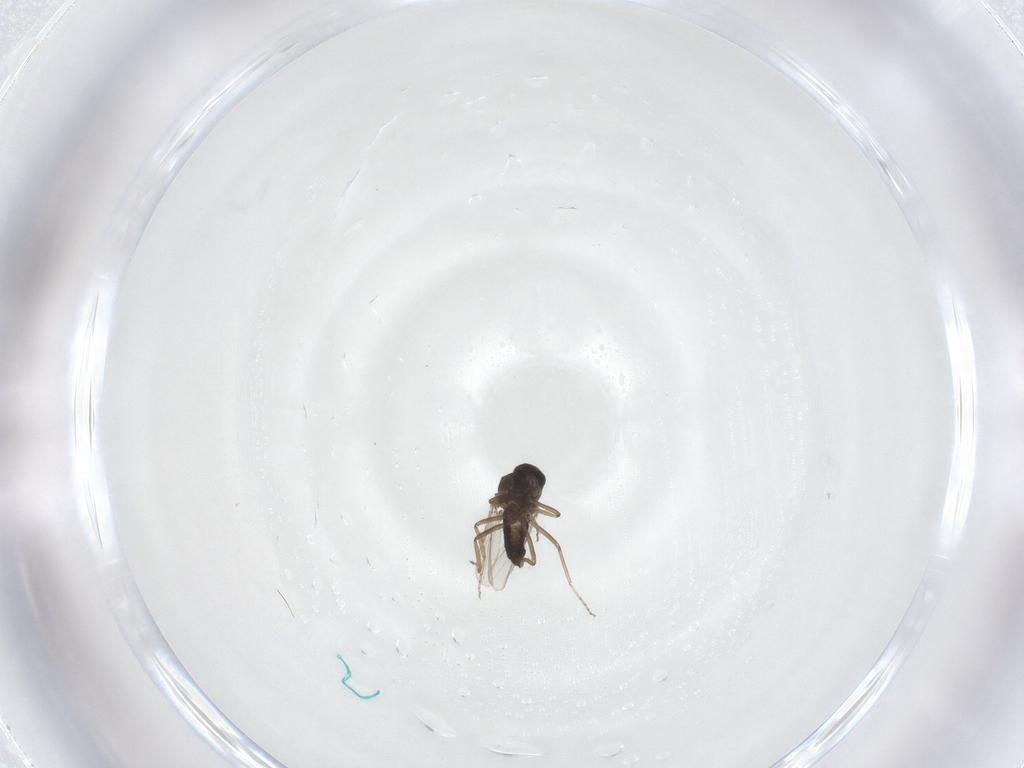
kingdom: Animalia
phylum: Arthropoda
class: Insecta
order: Diptera
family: Ceratopogonidae
